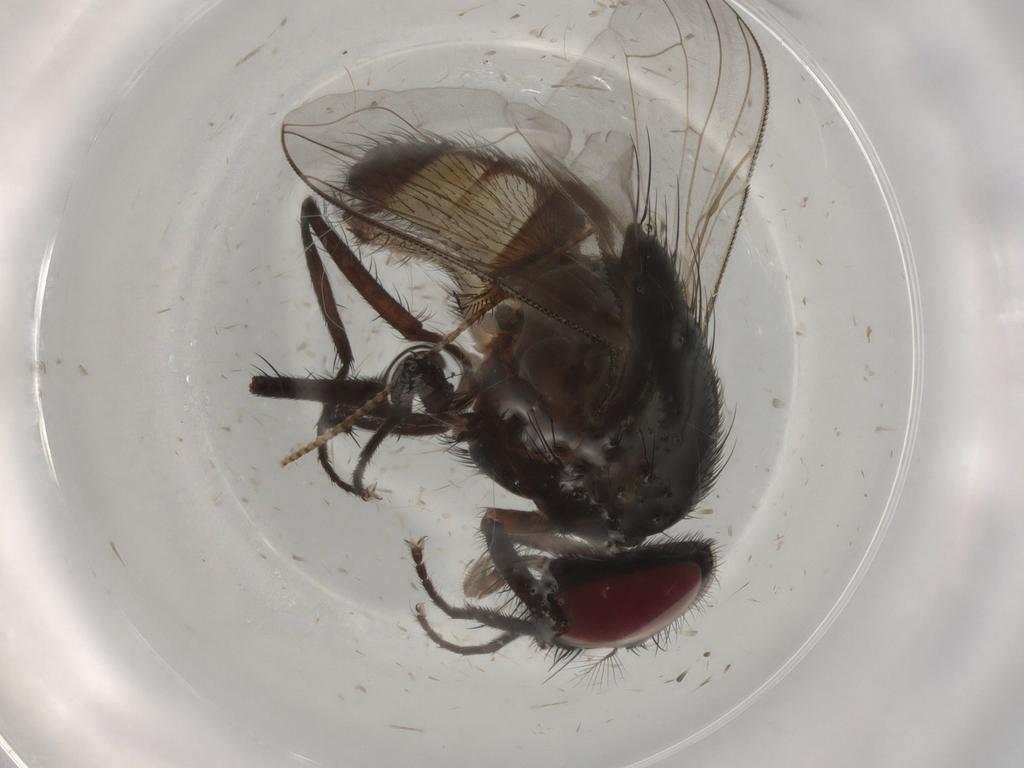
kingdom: Animalia
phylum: Arthropoda
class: Insecta
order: Diptera
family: Muscidae
